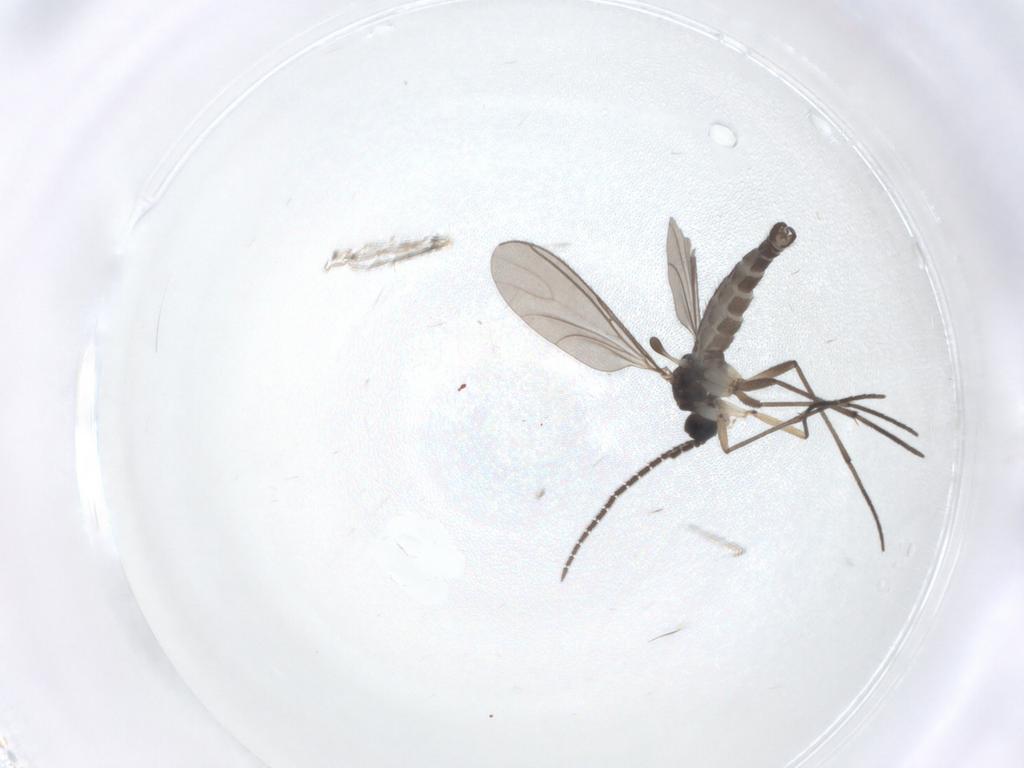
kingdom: Animalia
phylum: Arthropoda
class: Insecta
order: Diptera
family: Sciaridae
